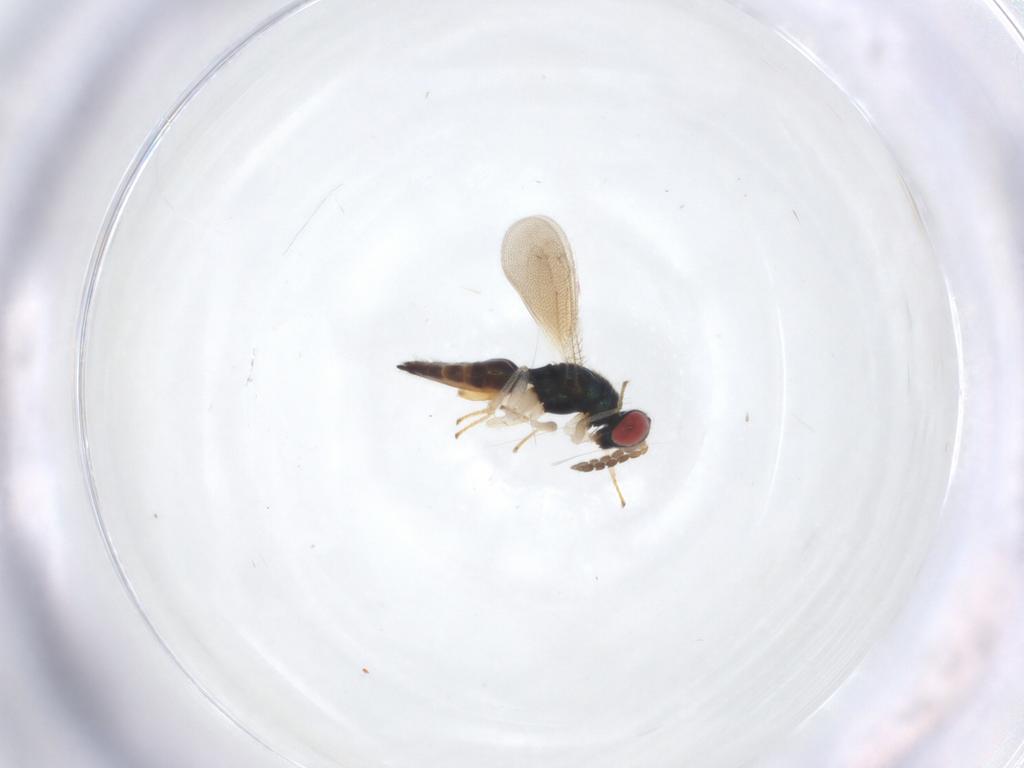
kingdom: Animalia
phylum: Arthropoda
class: Insecta
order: Hymenoptera
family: Eulophidae
